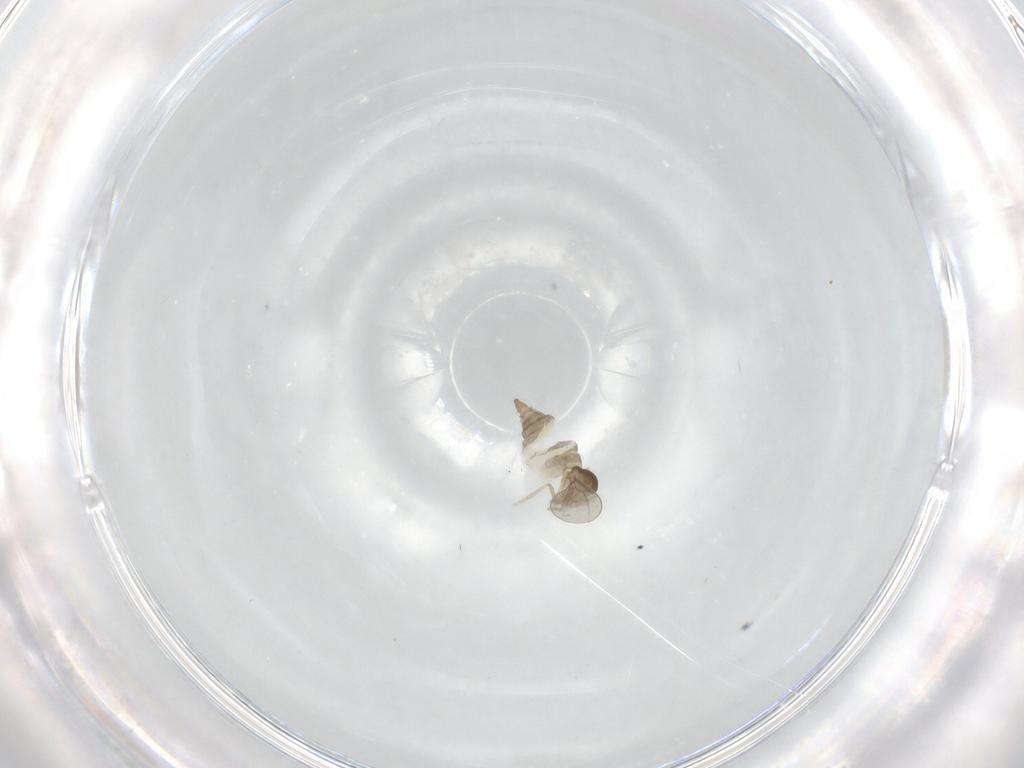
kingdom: Animalia
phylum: Arthropoda
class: Insecta
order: Diptera
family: Cecidomyiidae
